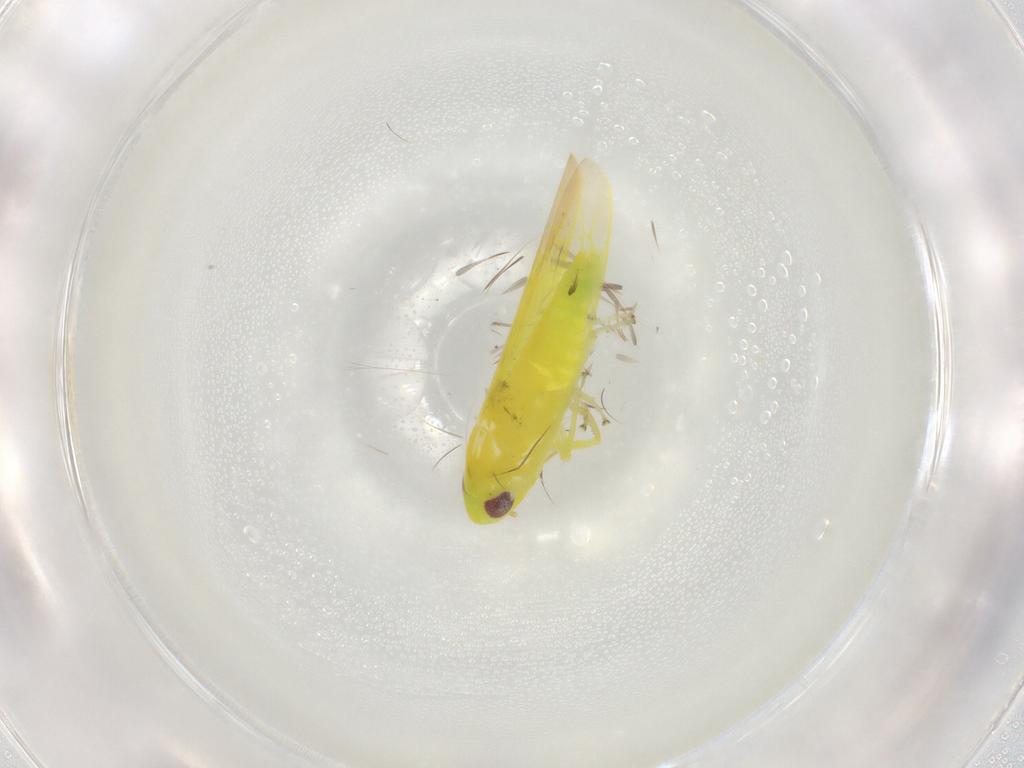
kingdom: Animalia
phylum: Arthropoda
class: Insecta
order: Hemiptera
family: Cicadellidae
